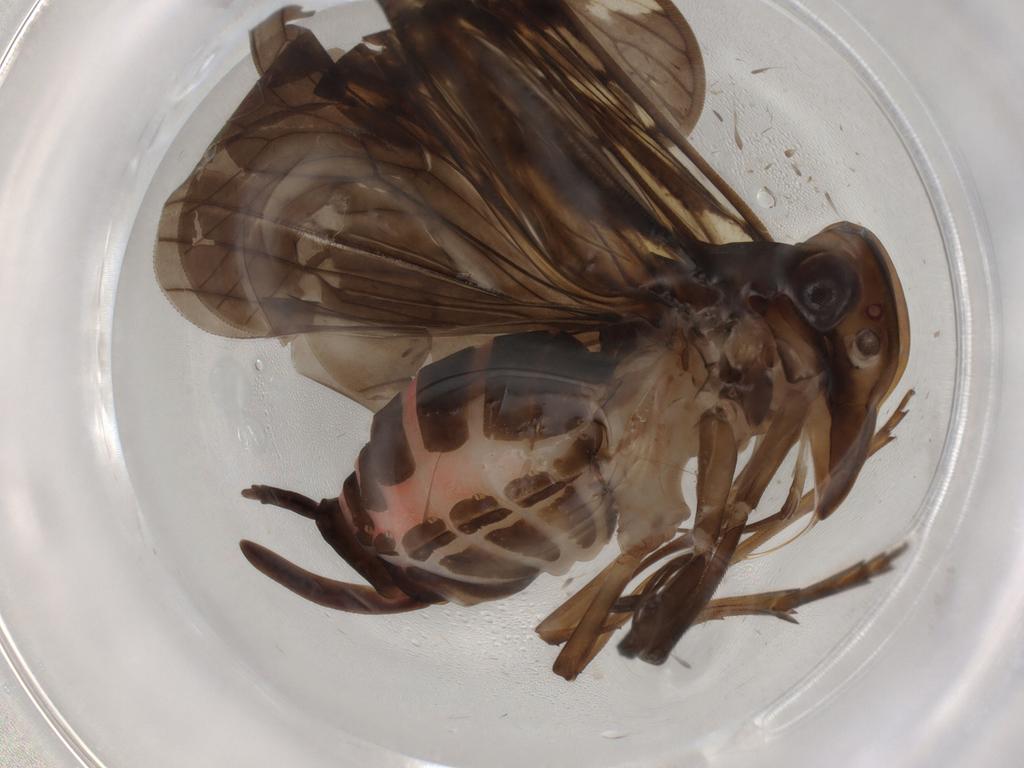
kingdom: Animalia
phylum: Arthropoda
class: Insecta
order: Hemiptera
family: Cixiidae
